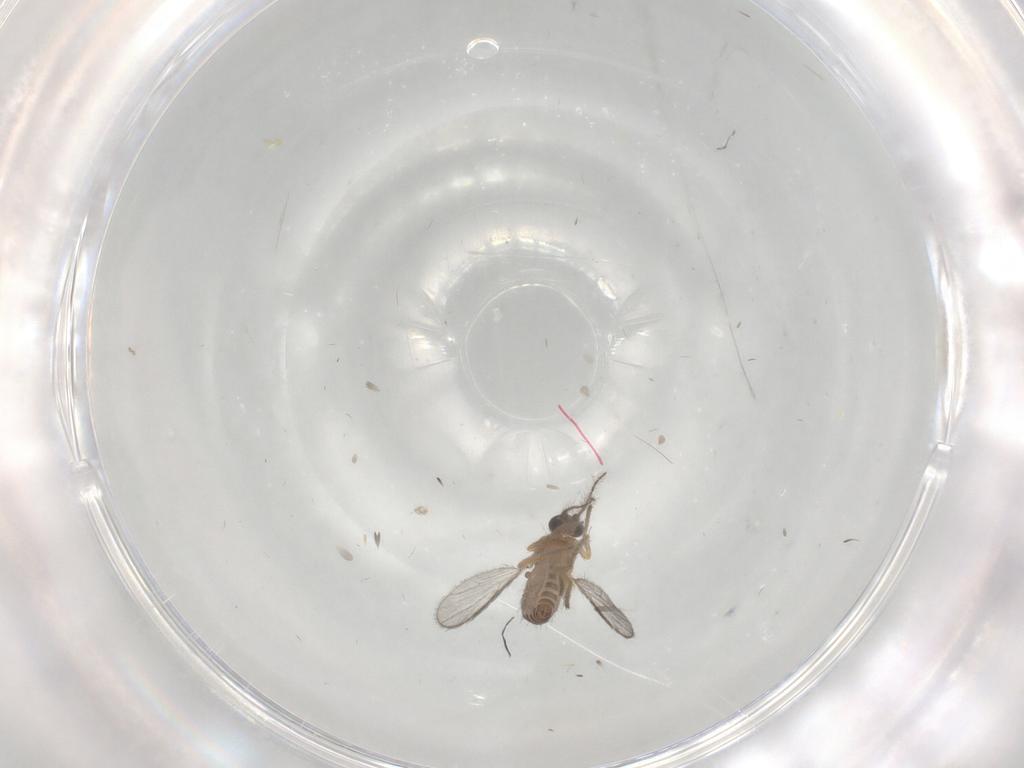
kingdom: Animalia
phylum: Arthropoda
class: Insecta
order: Diptera
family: Ceratopogonidae
